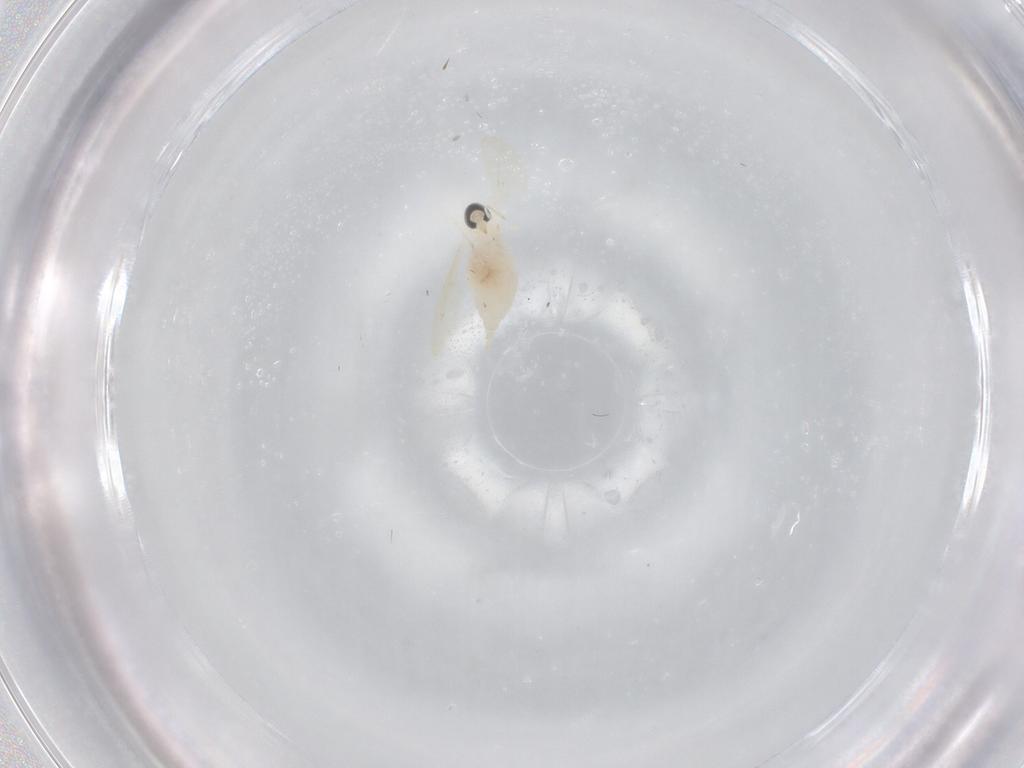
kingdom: Animalia
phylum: Arthropoda
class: Insecta
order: Diptera
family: Cecidomyiidae
